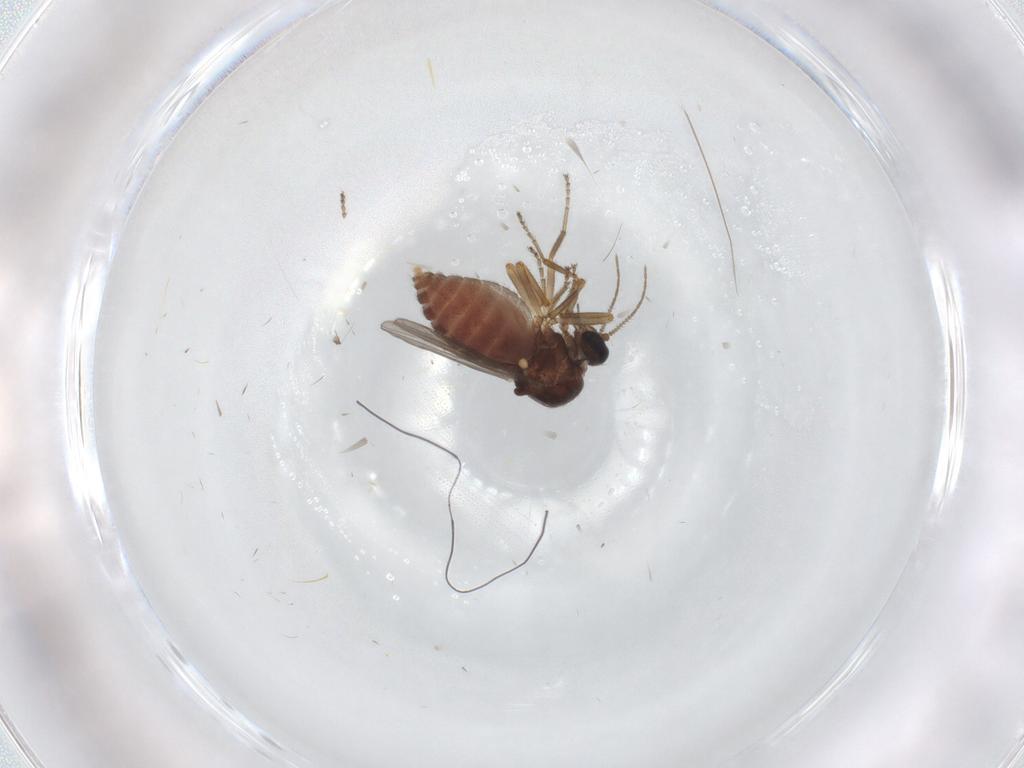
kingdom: Animalia
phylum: Arthropoda
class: Insecta
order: Diptera
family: Ceratopogonidae
